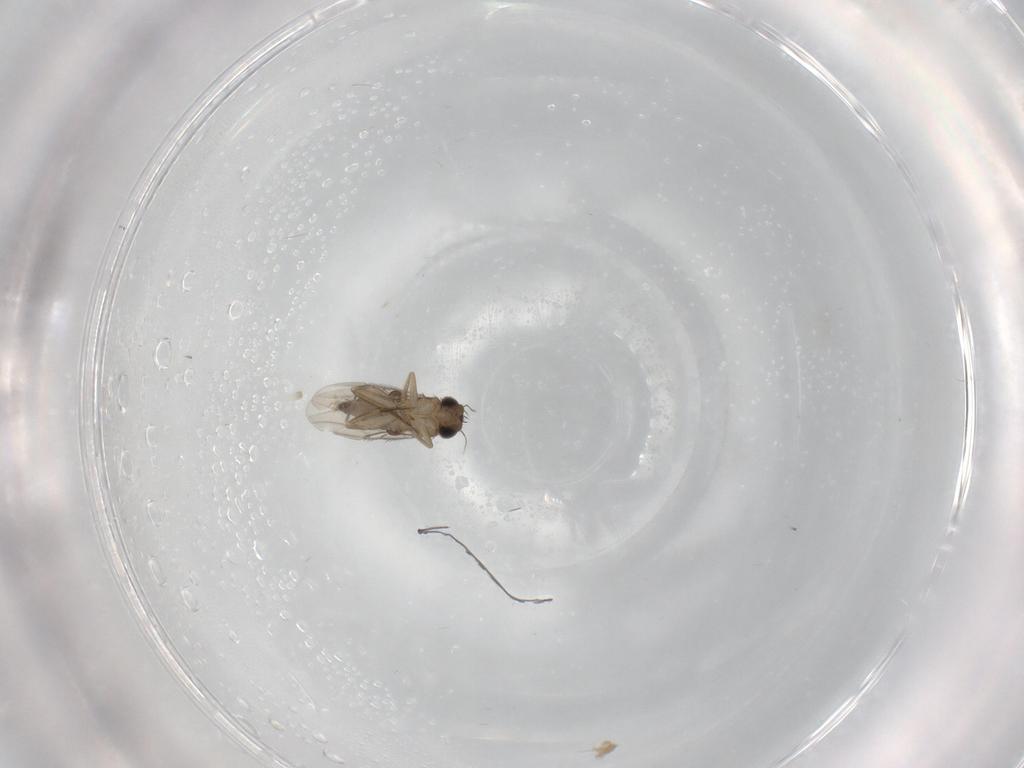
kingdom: Animalia
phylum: Arthropoda
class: Insecta
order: Diptera
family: Phoridae
